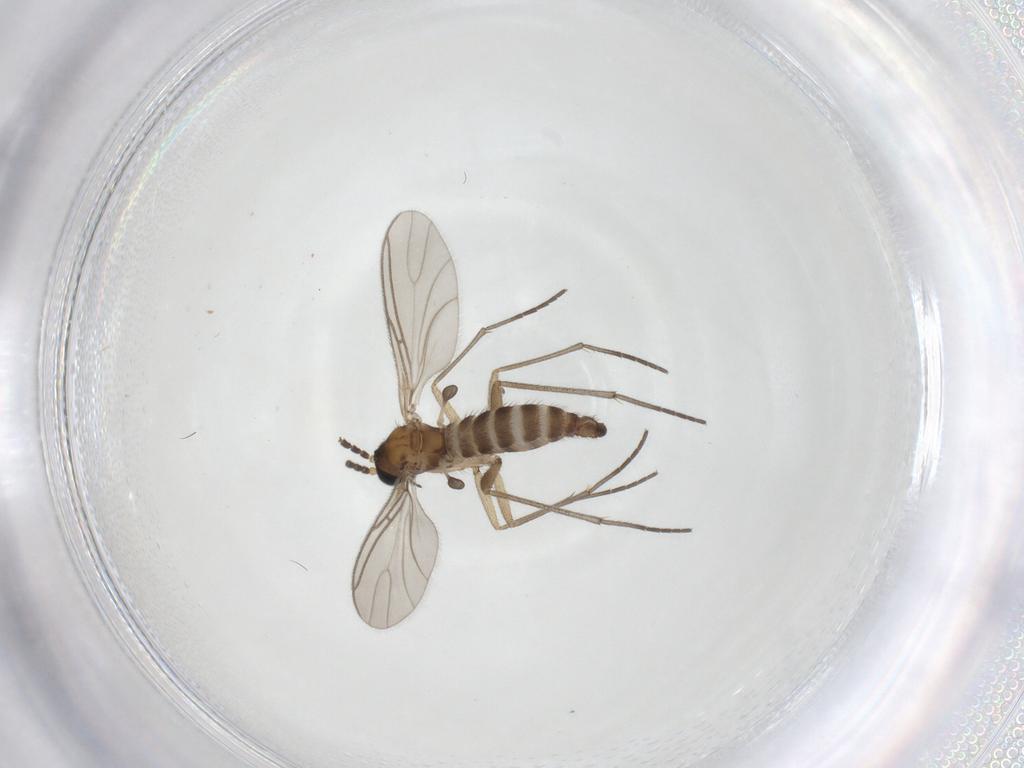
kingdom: Animalia
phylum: Arthropoda
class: Insecta
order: Diptera
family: Sciaridae
